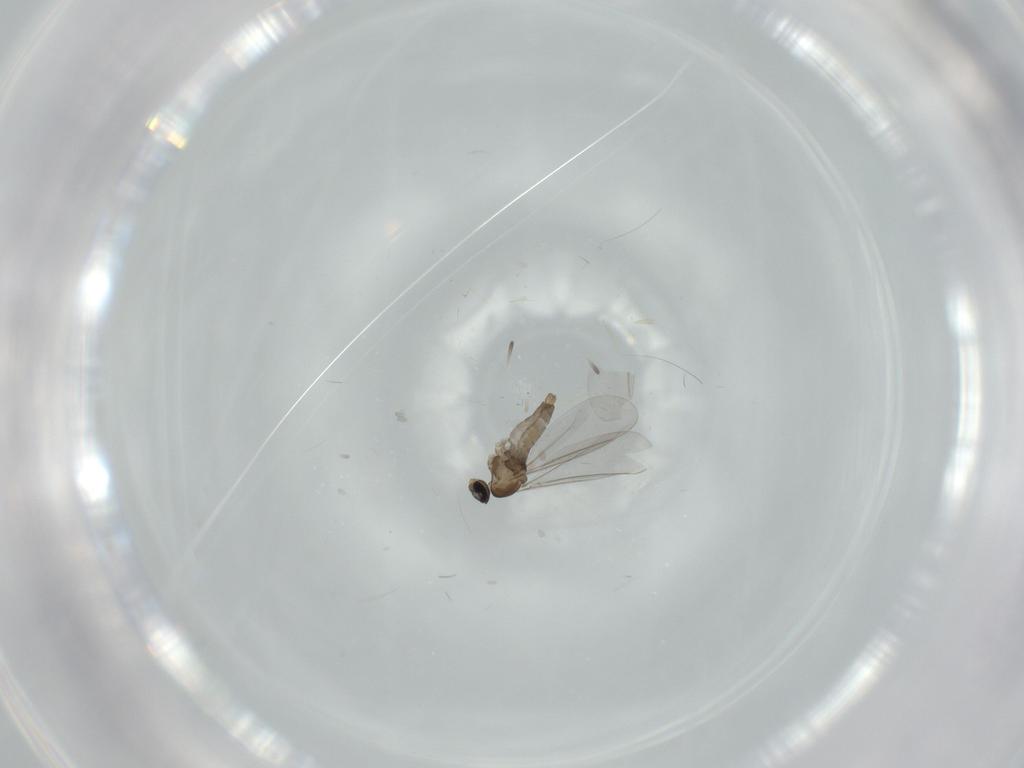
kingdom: Animalia
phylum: Arthropoda
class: Insecta
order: Diptera
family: Cecidomyiidae
